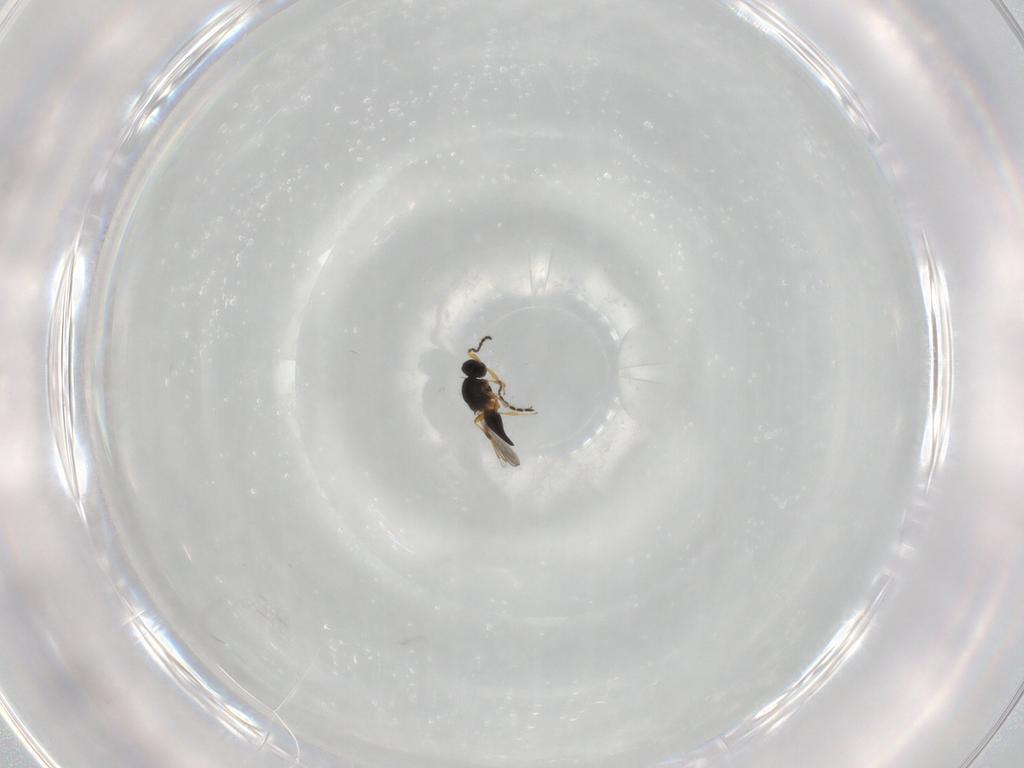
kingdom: Animalia
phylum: Arthropoda
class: Insecta
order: Hymenoptera
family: Platygastridae
